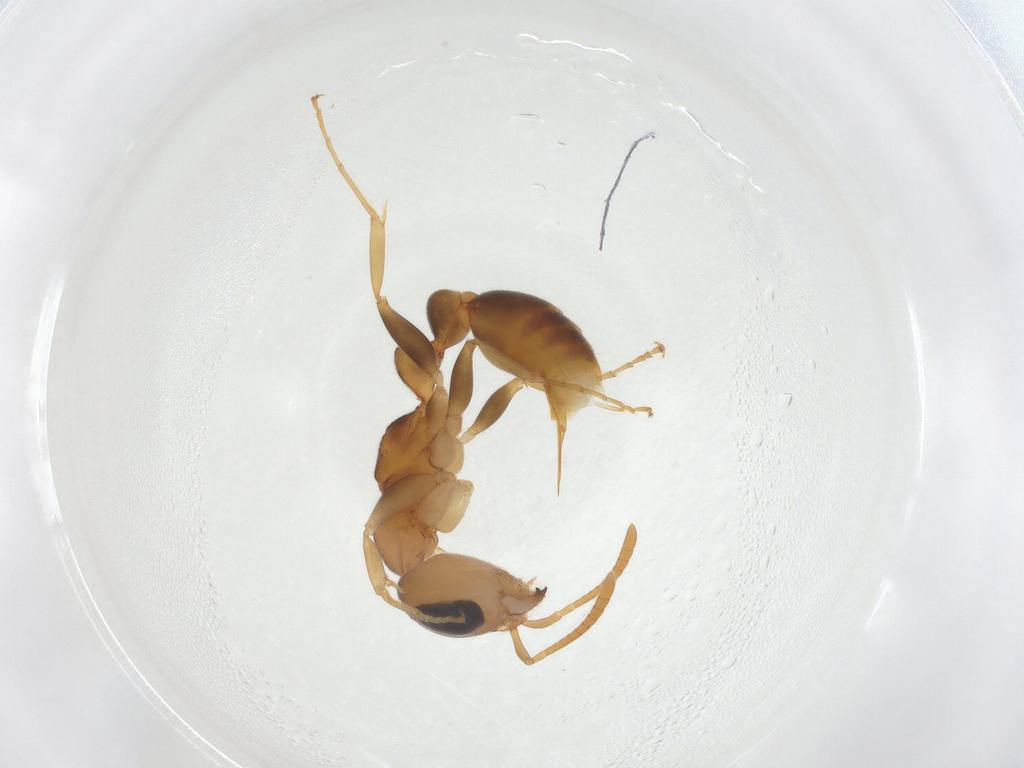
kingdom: Animalia
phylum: Arthropoda
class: Insecta
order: Hymenoptera
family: Formicidae
